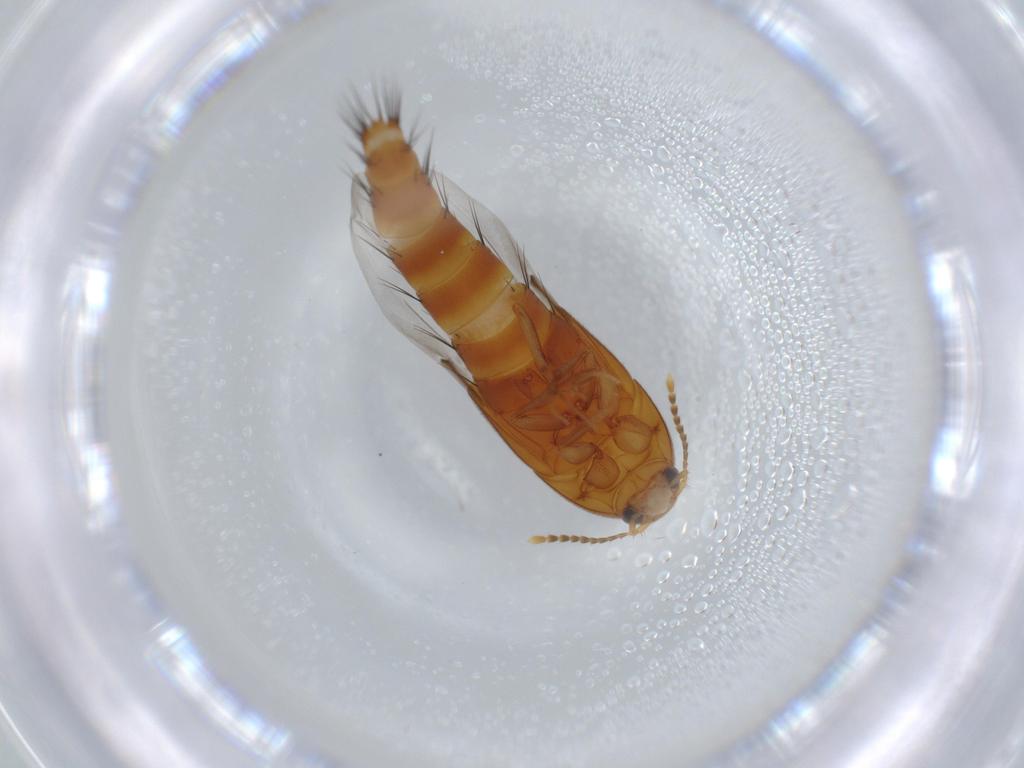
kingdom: Animalia
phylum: Arthropoda
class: Insecta
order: Coleoptera
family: Staphylinidae
